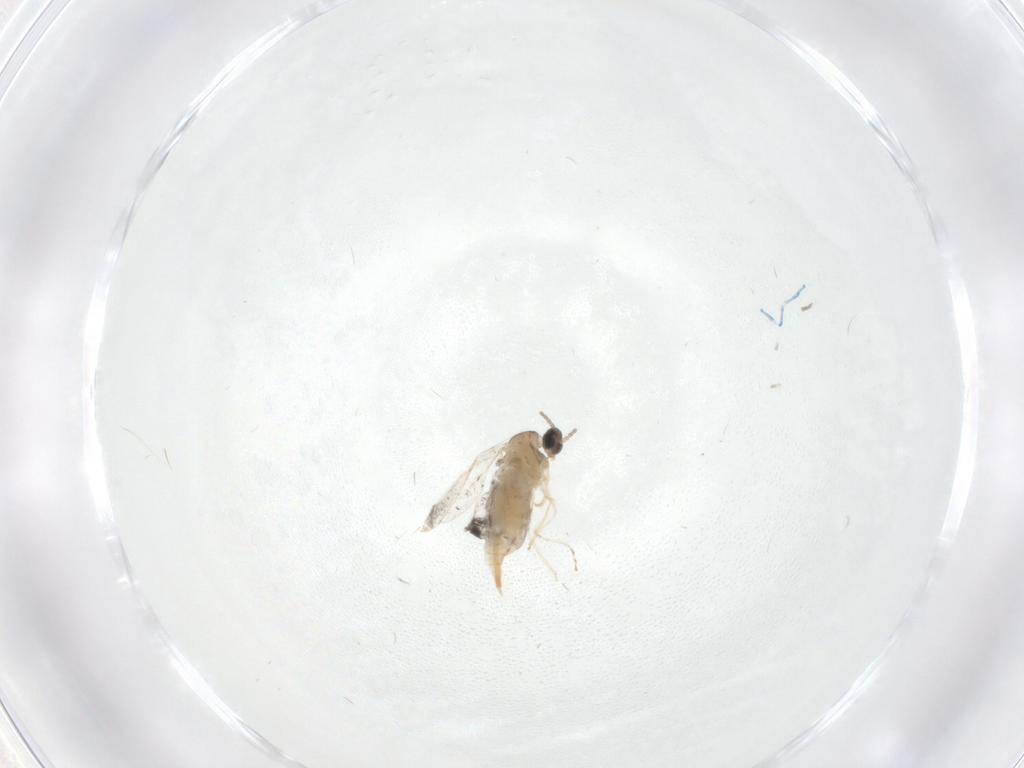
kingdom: Animalia
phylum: Arthropoda
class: Insecta
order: Diptera
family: Cecidomyiidae
